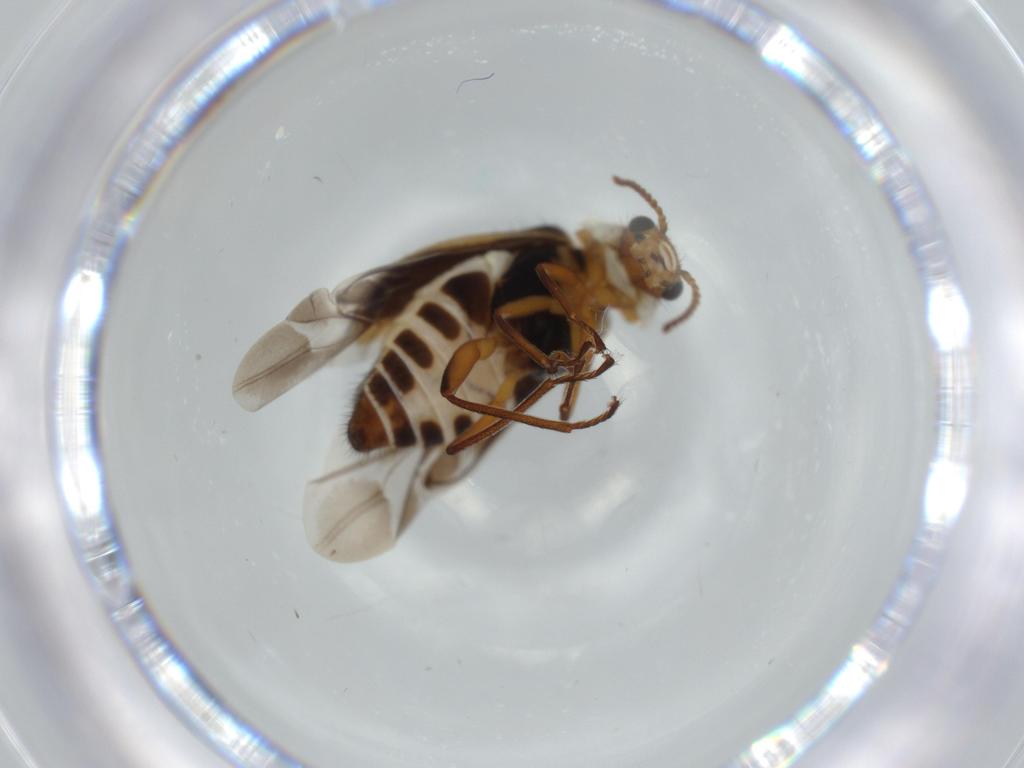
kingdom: Animalia
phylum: Arthropoda
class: Insecta
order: Coleoptera
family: Melyridae
